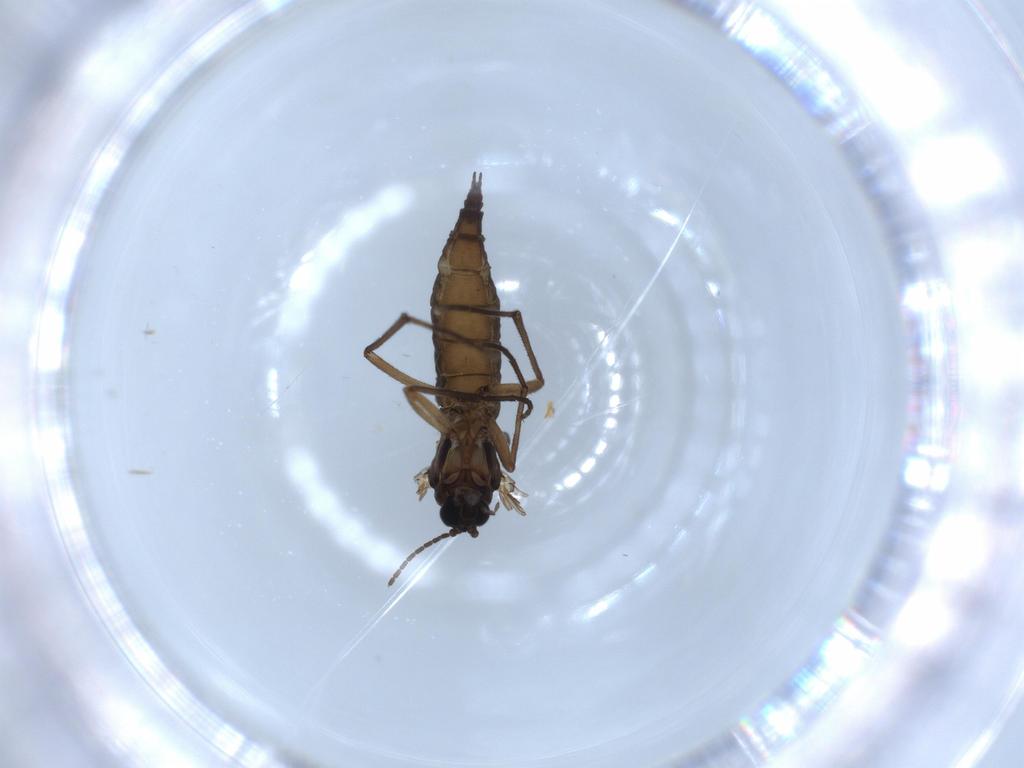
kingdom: Animalia
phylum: Arthropoda
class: Insecta
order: Diptera
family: Sciaridae
